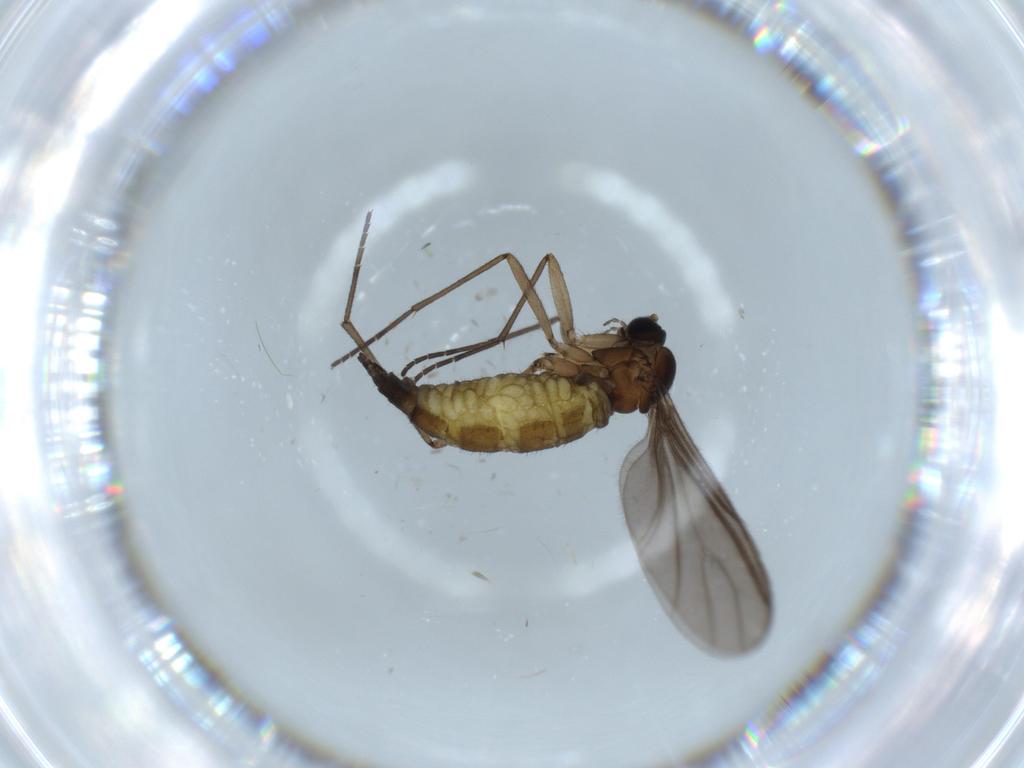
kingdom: Animalia
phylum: Arthropoda
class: Insecta
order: Diptera
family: Sciaridae
